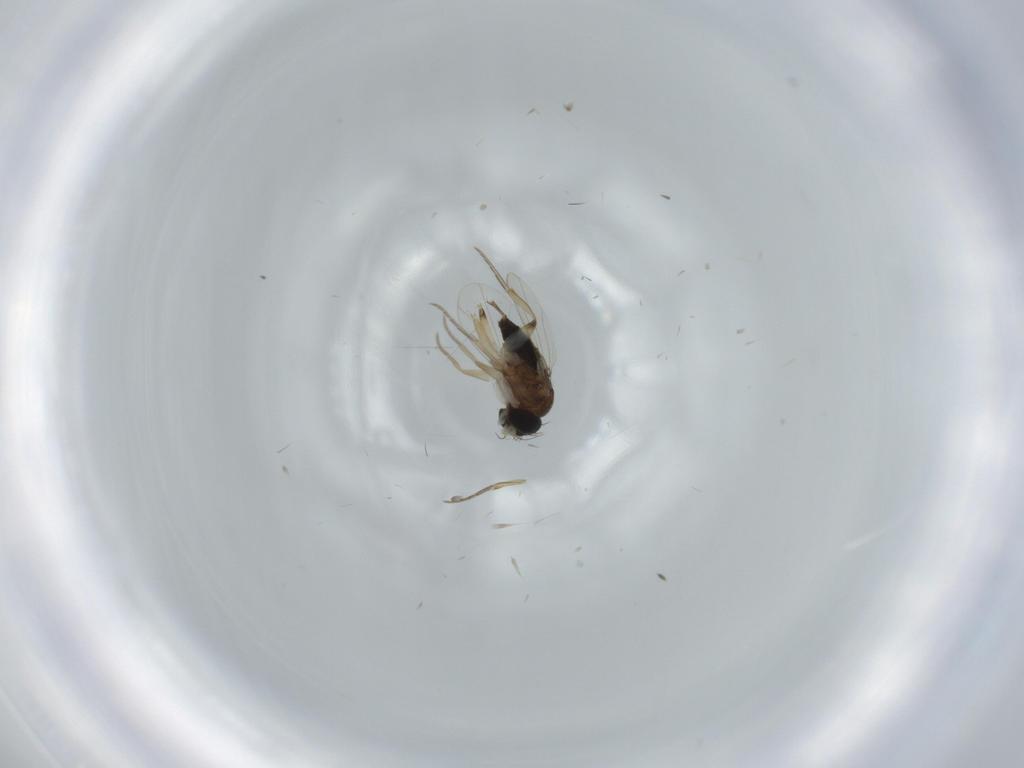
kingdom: Animalia
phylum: Arthropoda
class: Insecta
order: Diptera
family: Phoridae
